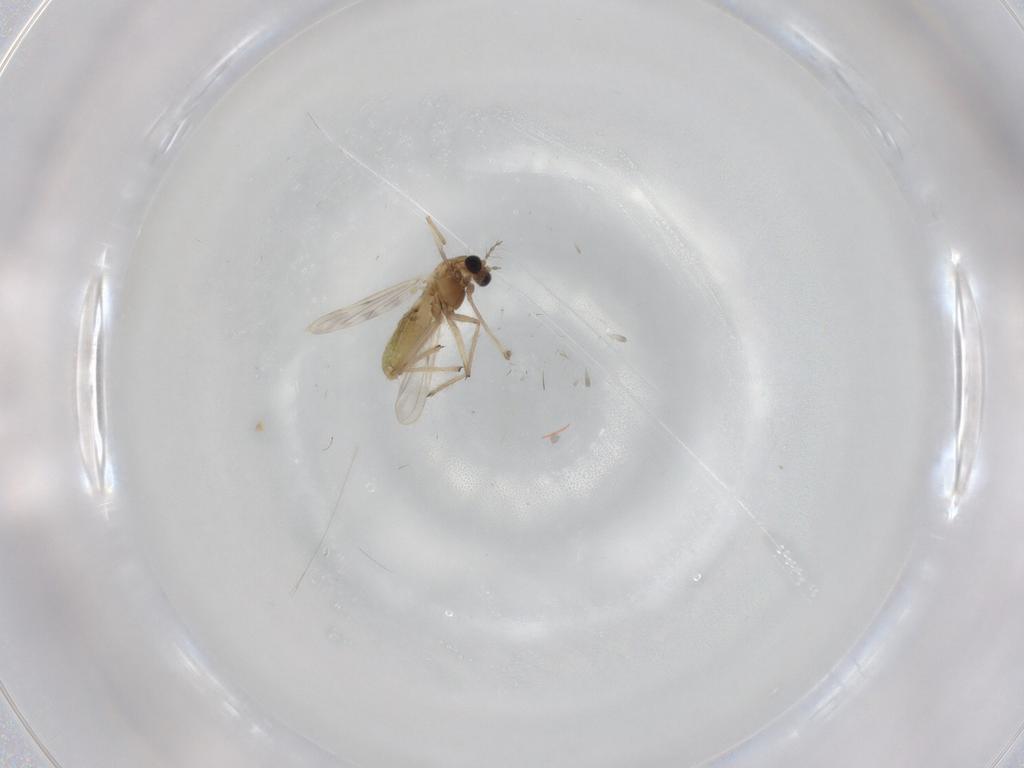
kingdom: Animalia
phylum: Arthropoda
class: Insecta
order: Diptera
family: Chironomidae
